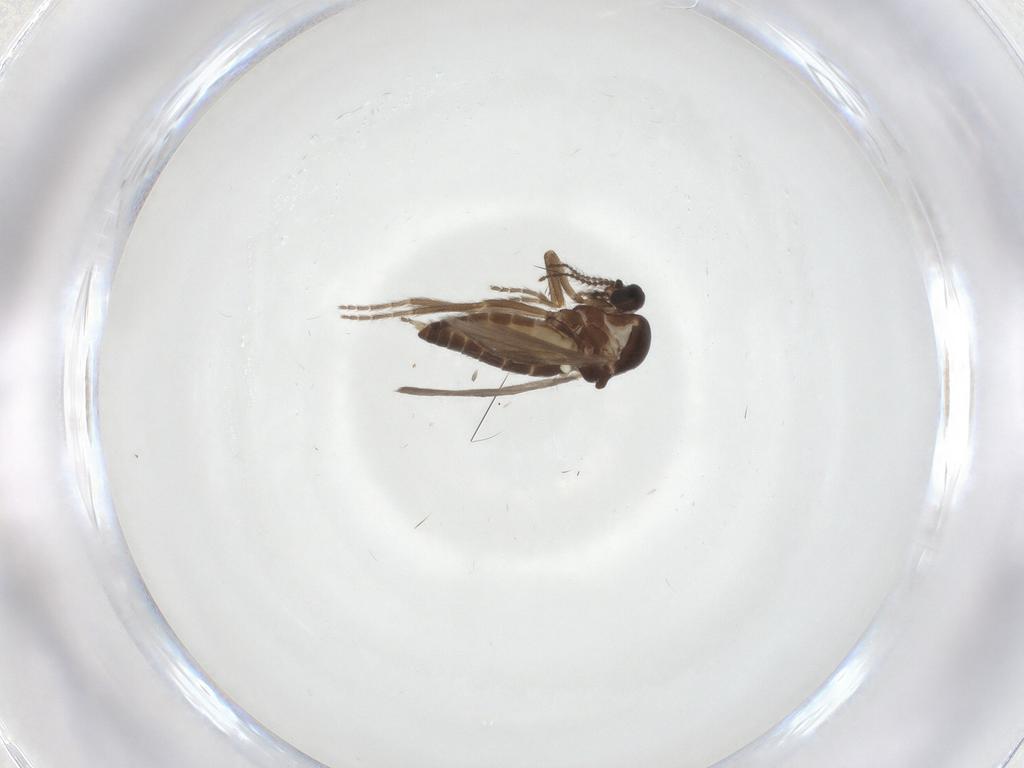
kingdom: Animalia
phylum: Arthropoda
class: Insecta
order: Diptera
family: Ceratopogonidae
